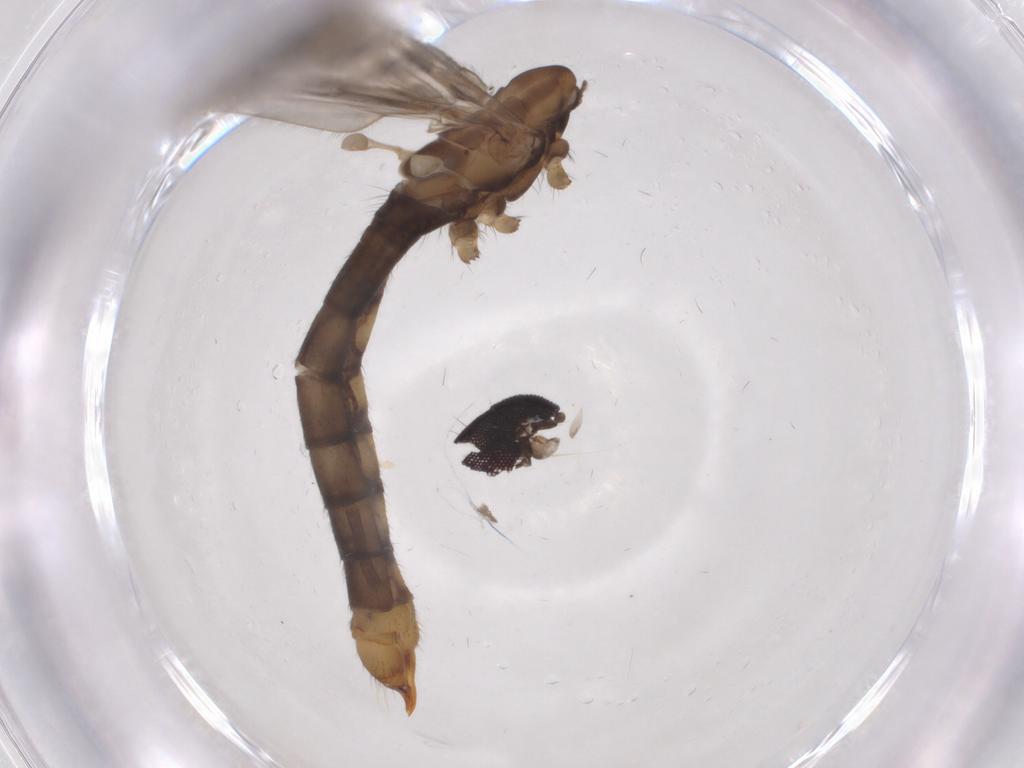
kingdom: Animalia
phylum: Arthropoda
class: Insecta
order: Diptera
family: Limoniidae
